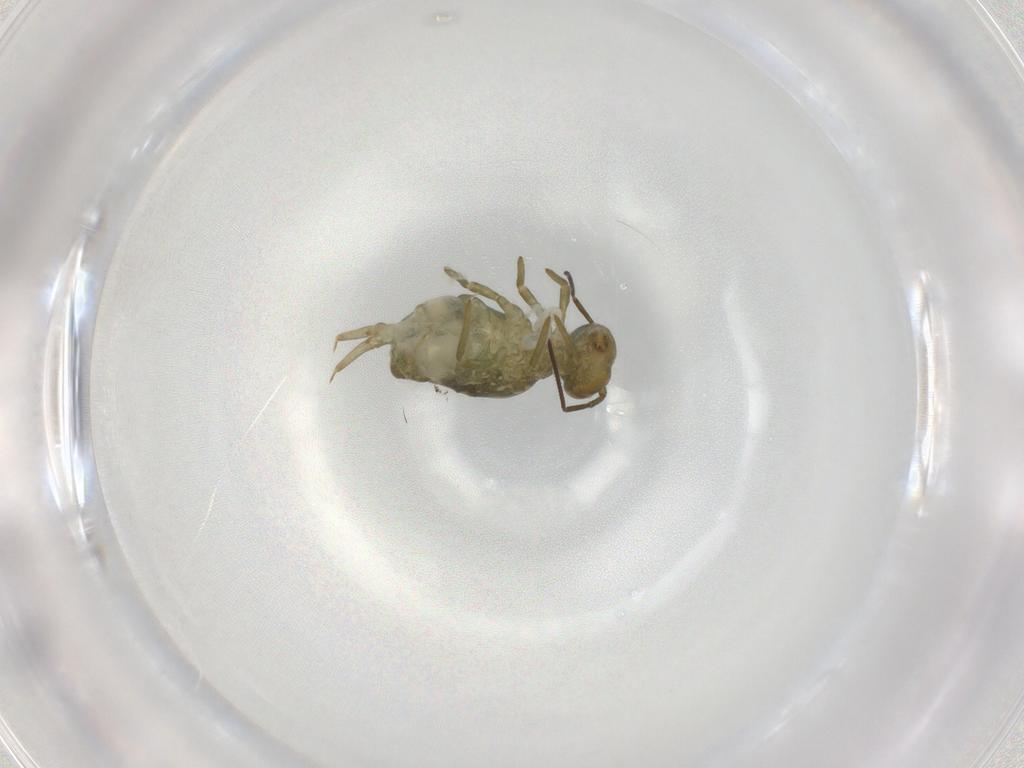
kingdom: Animalia
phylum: Arthropoda
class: Collembola
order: Symphypleona
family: Sminthuridae
